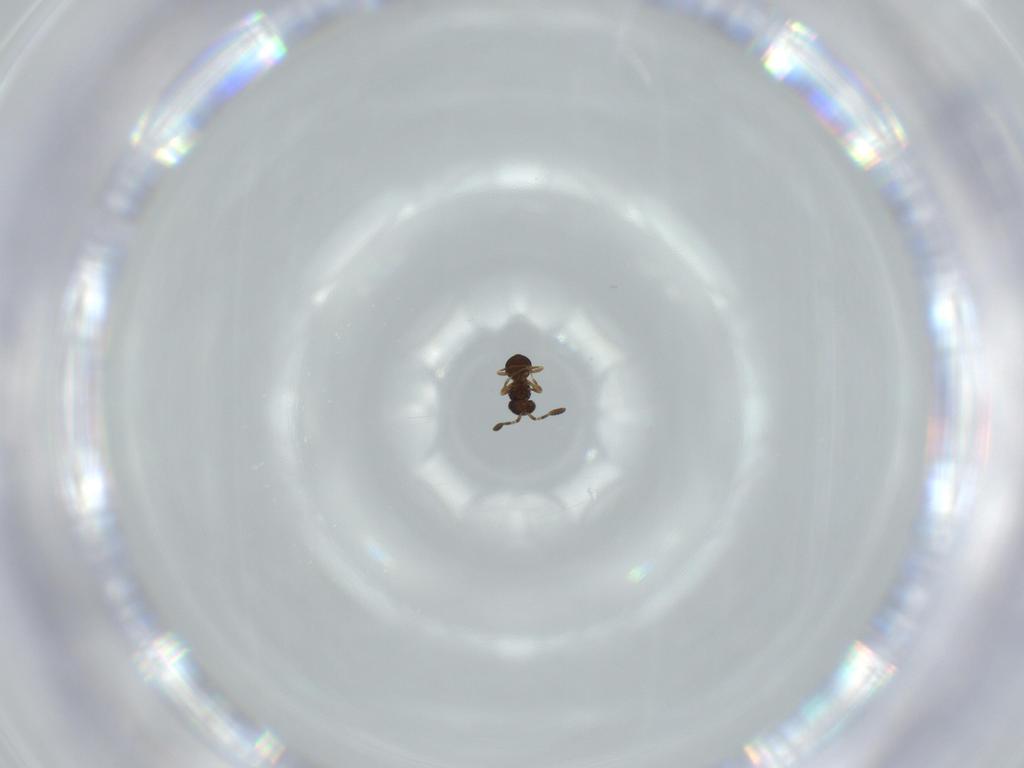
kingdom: Animalia
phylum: Arthropoda
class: Insecta
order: Hymenoptera
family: Scelionidae
